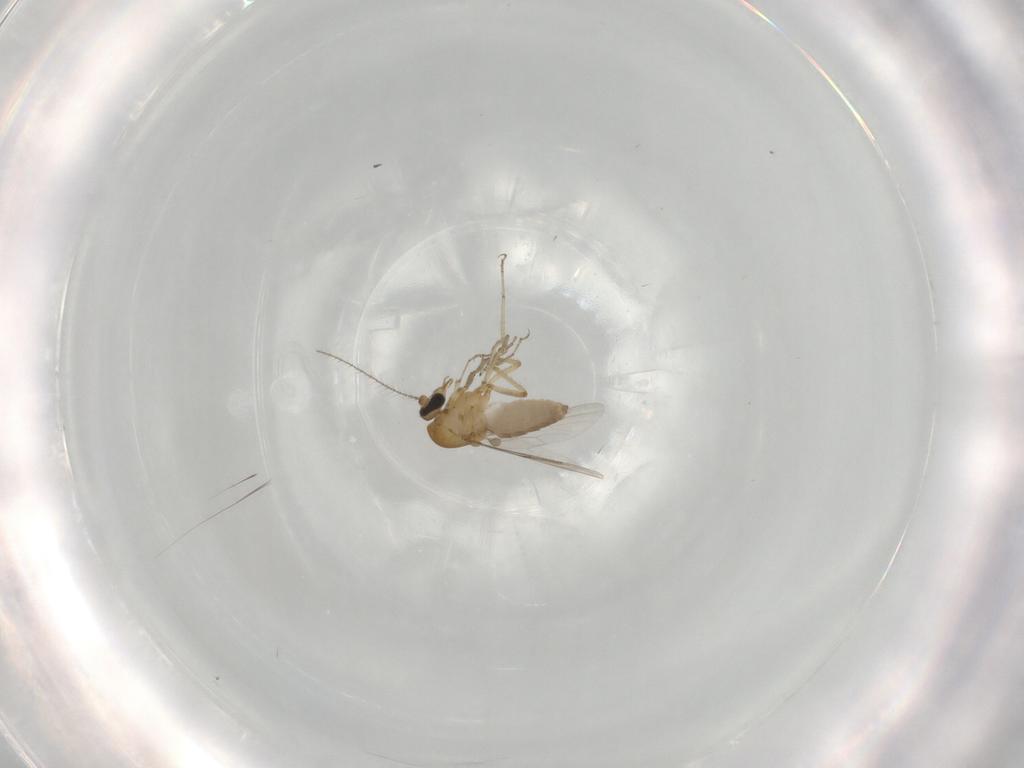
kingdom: Animalia
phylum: Arthropoda
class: Insecta
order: Diptera
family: Ceratopogonidae
